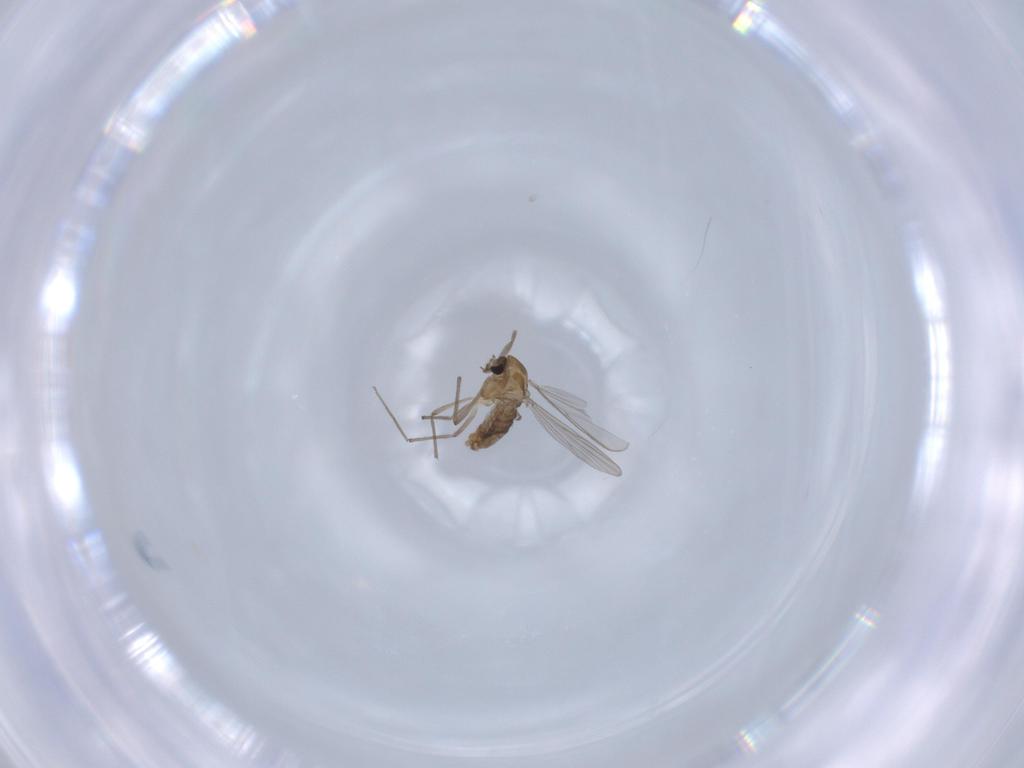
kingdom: Animalia
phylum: Arthropoda
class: Insecta
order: Diptera
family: Chironomidae
